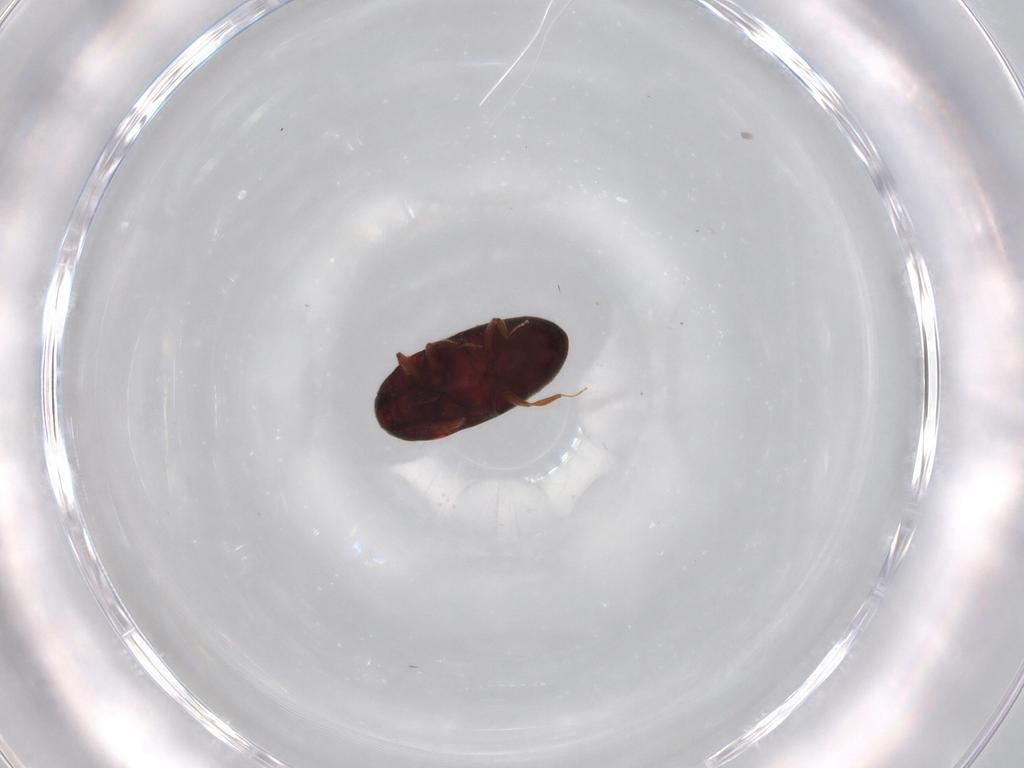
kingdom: Animalia
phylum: Arthropoda
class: Insecta
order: Coleoptera
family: Throscidae
